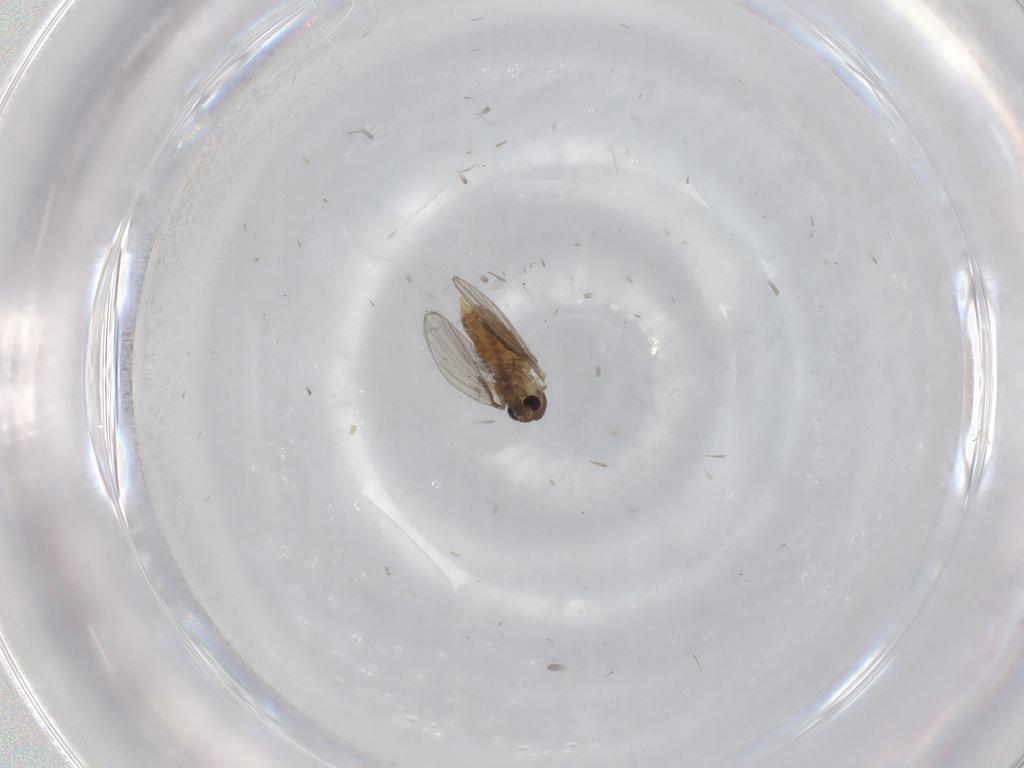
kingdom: Animalia
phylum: Arthropoda
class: Insecta
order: Diptera
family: Ditomyiidae
